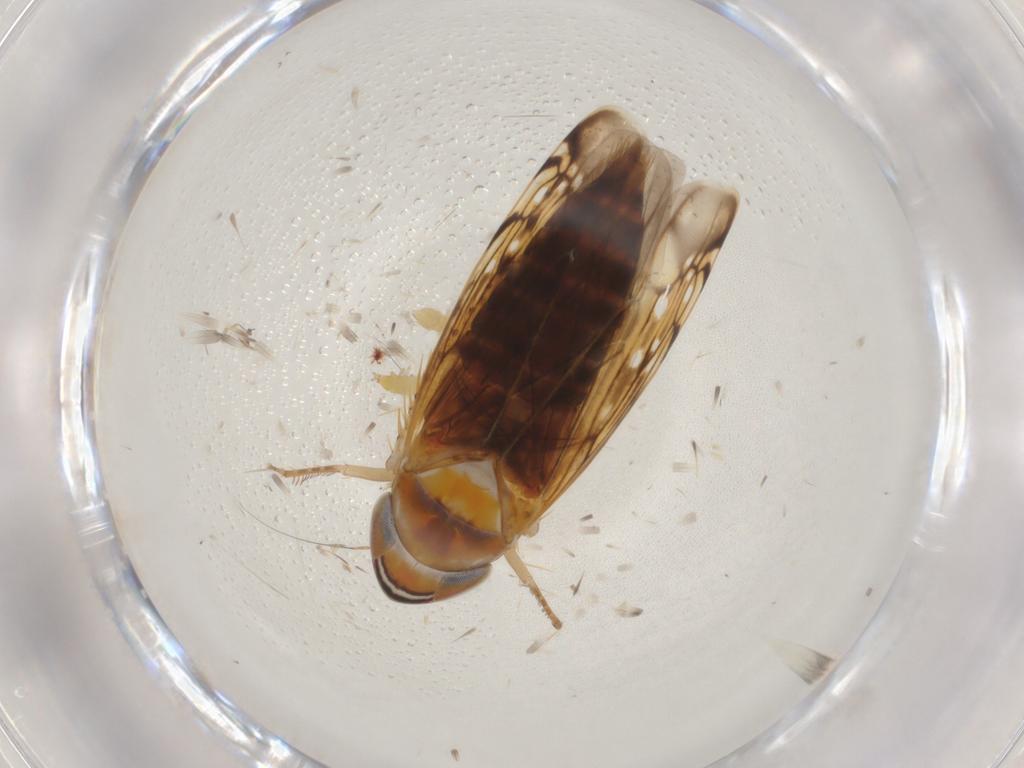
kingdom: Animalia
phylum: Arthropoda
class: Insecta
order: Hemiptera
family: Cicadellidae
